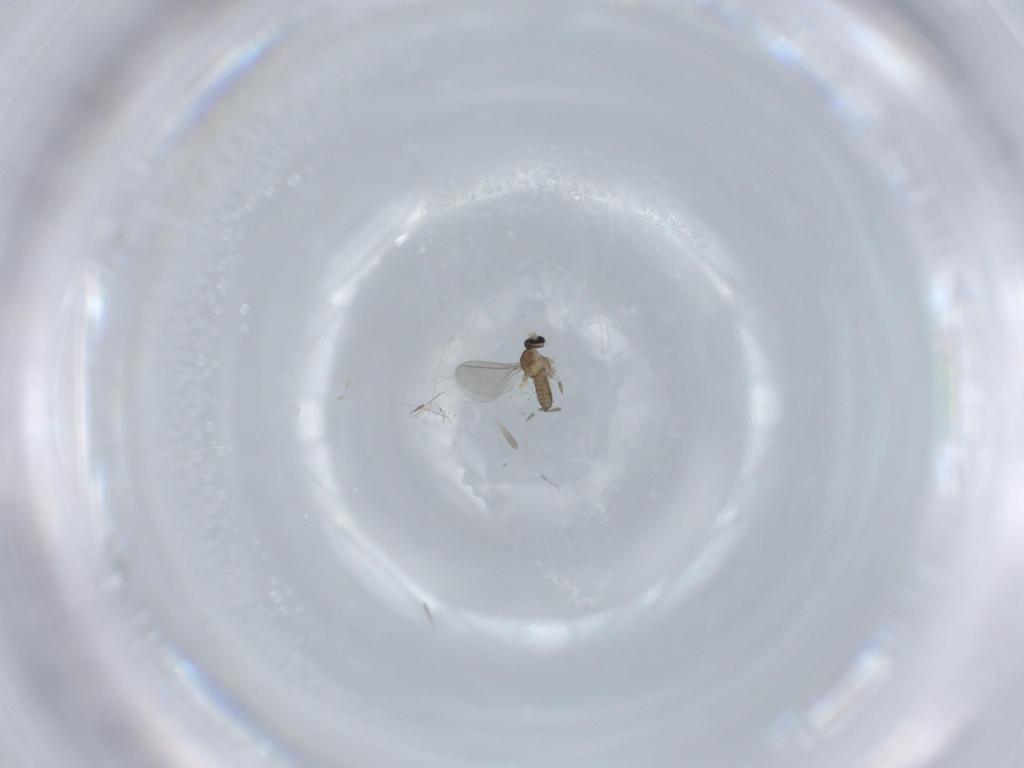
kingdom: Animalia
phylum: Arthropoda
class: Insecta
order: Diptera
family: Cecidomyiidae
